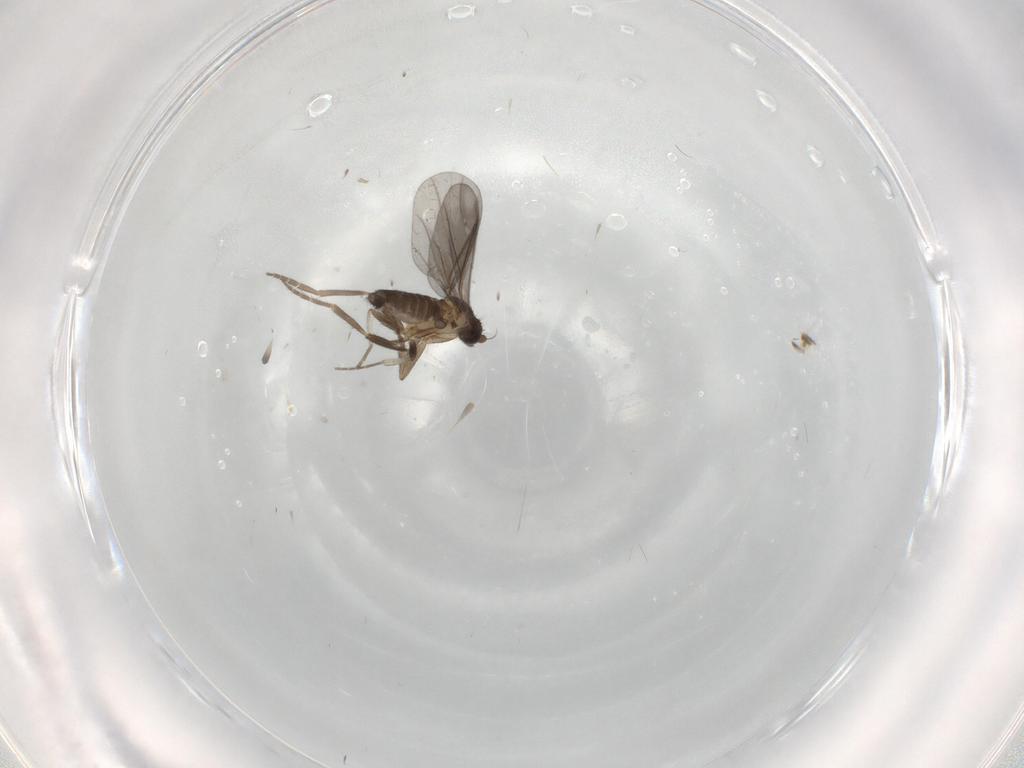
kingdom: Animalia
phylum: Arthropoda
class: Insecta
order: Diptera
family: Phoridae
